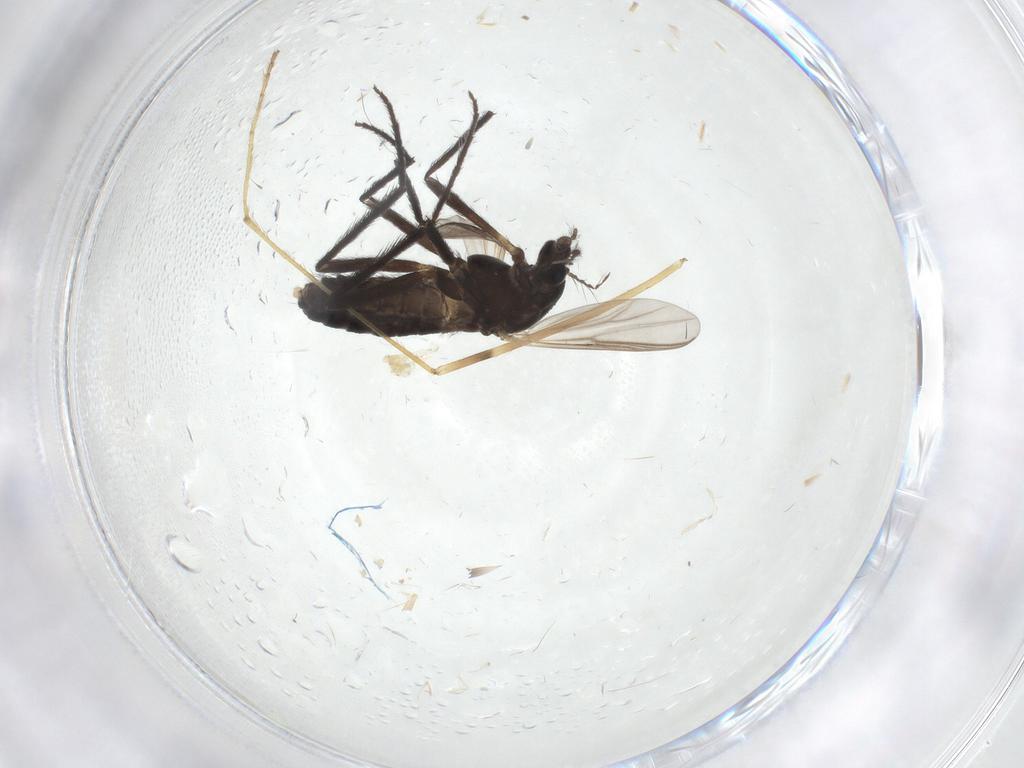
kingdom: Animalia
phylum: Arthropoda
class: Insecta
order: Diptera
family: Chironomidae
